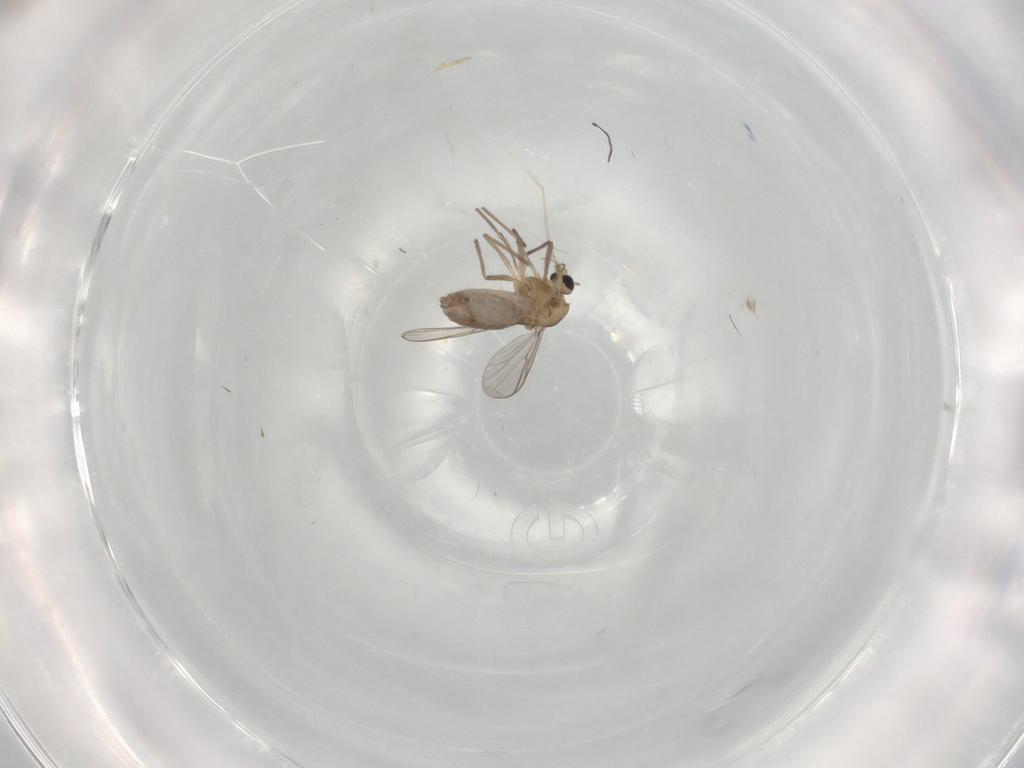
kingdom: Animalia
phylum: Arthropoda
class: Insecta
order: Diptera
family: Chironomidae
